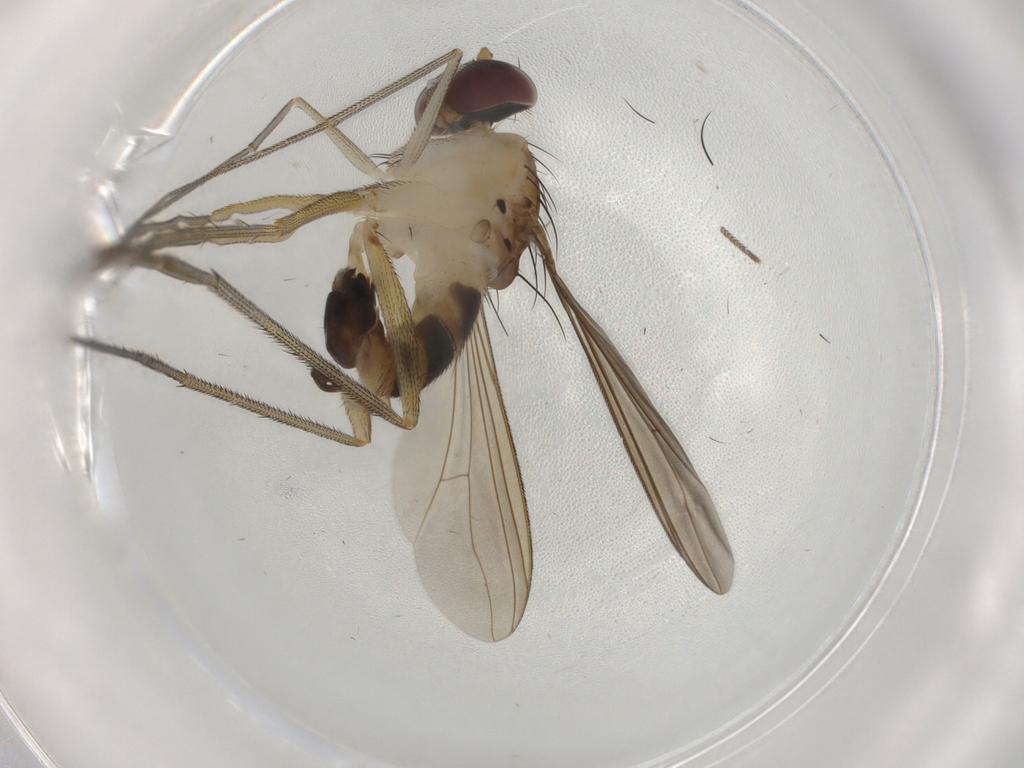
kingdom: Animalia
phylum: Arthropoda
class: Insecta
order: Diptera
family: Dolichopodidae
